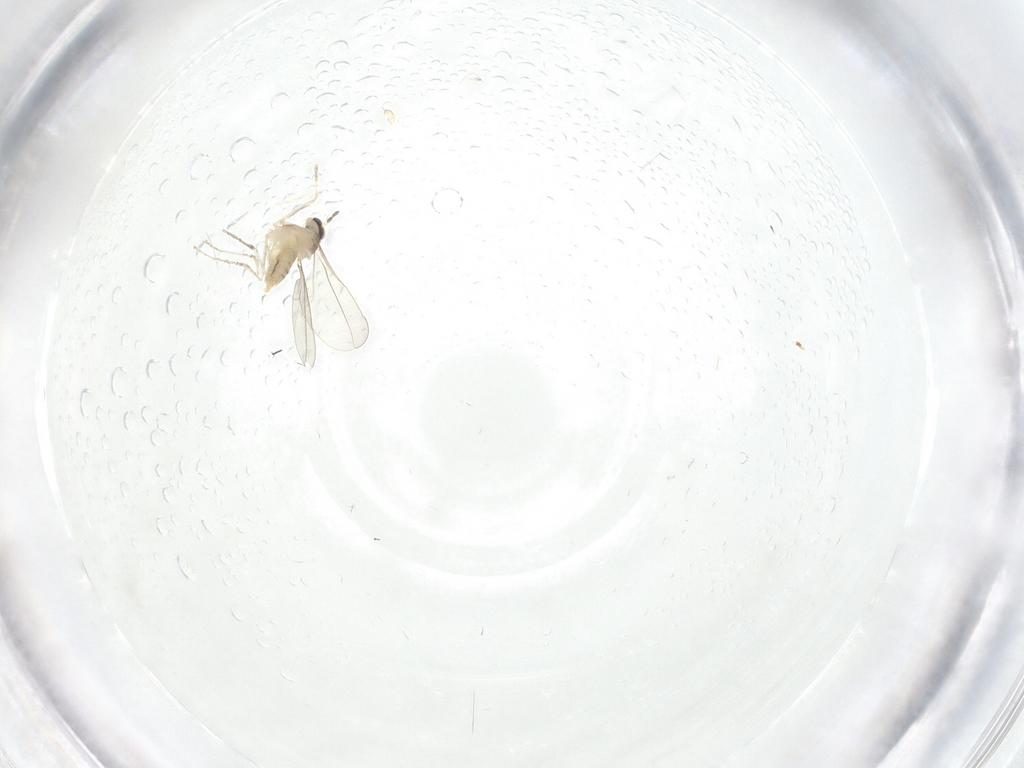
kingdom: Animalia
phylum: Arthropoda
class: Insecta
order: Diptera
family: Cecidomyiidae
